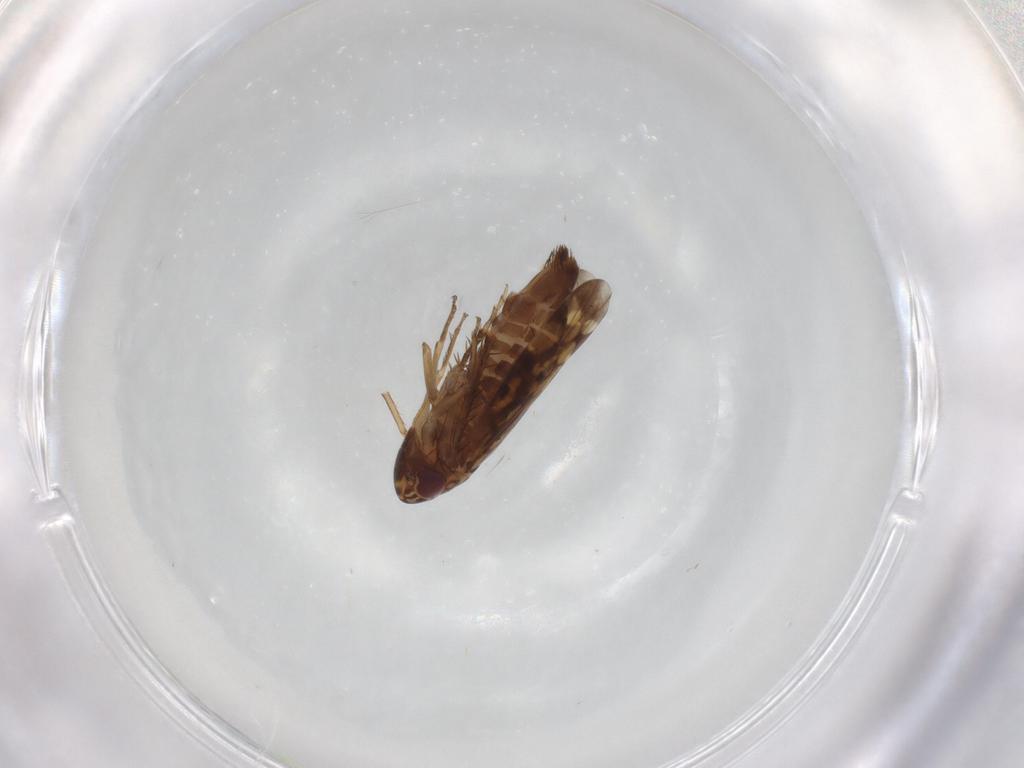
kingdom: Animalia
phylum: Arthropoda
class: Insecta
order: Hemiptera
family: Cicadellidae
